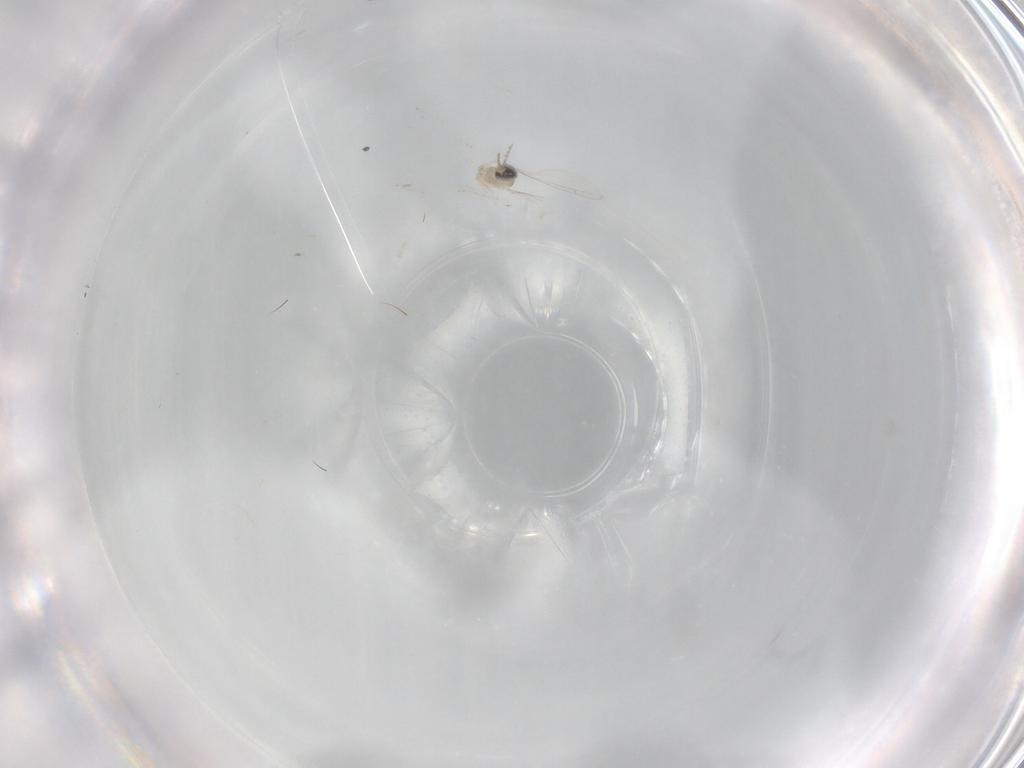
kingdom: Animalia
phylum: Arthropoda
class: Insecta
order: Diptera
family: Cecidomyiidae
